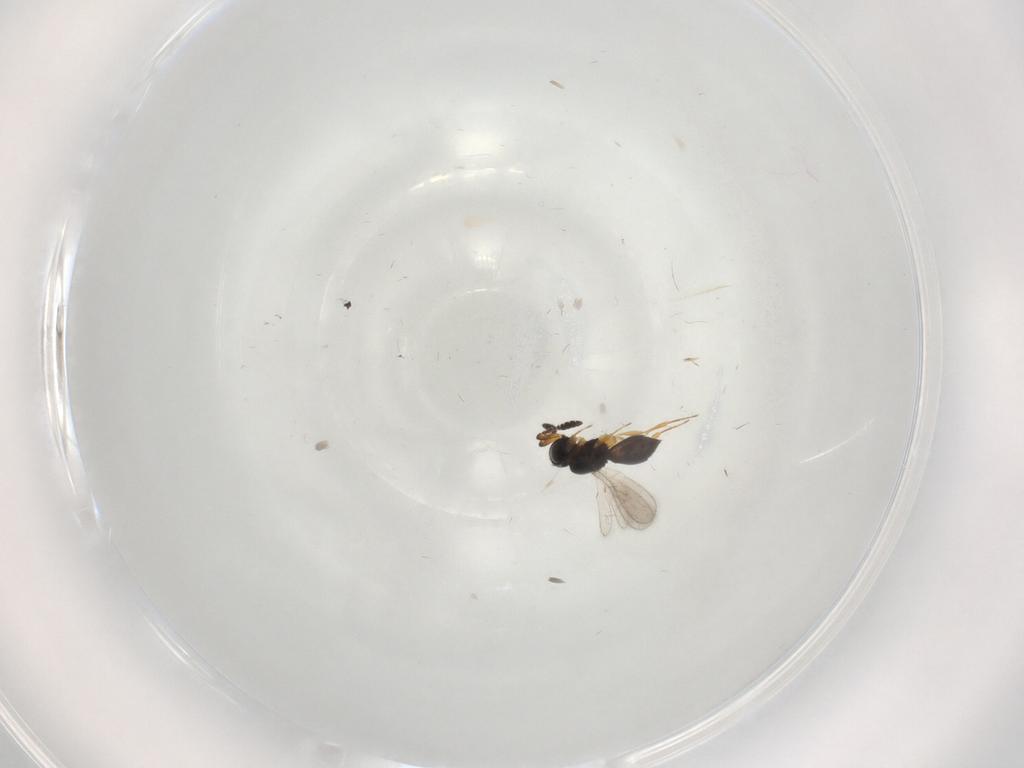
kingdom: Animalia
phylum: Arthropoda
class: Insecta
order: Hymenoptera
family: Scelionidae
